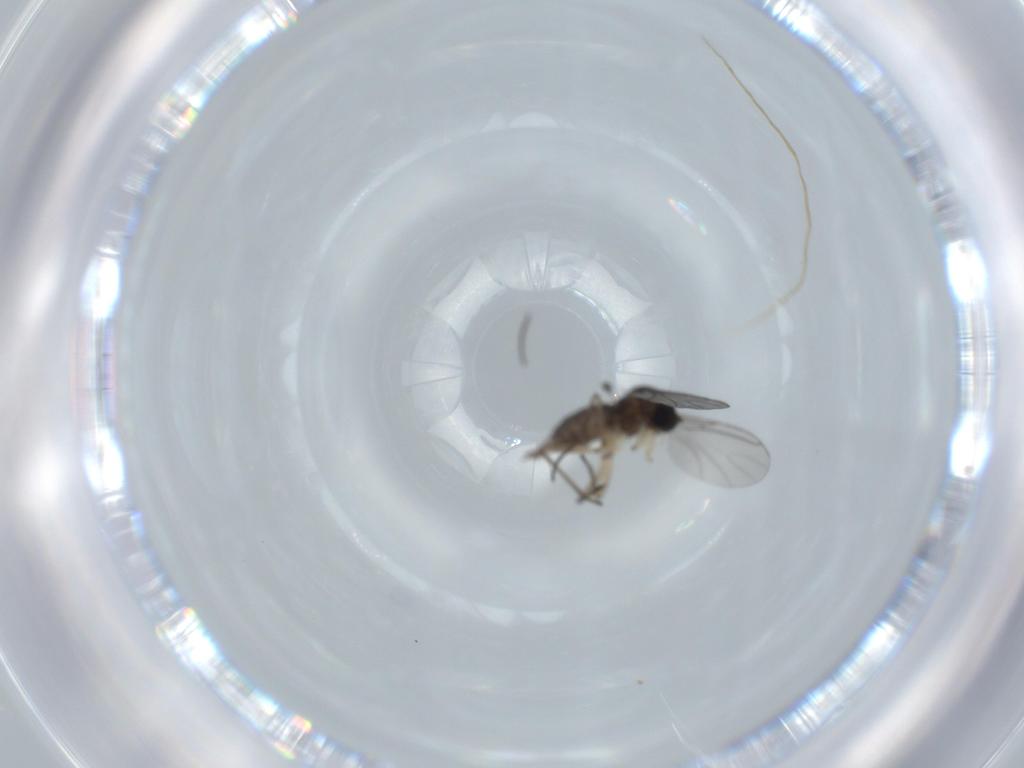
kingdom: Animalia
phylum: Arthropoda
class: Insecta
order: Diptera
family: Sciaridae
